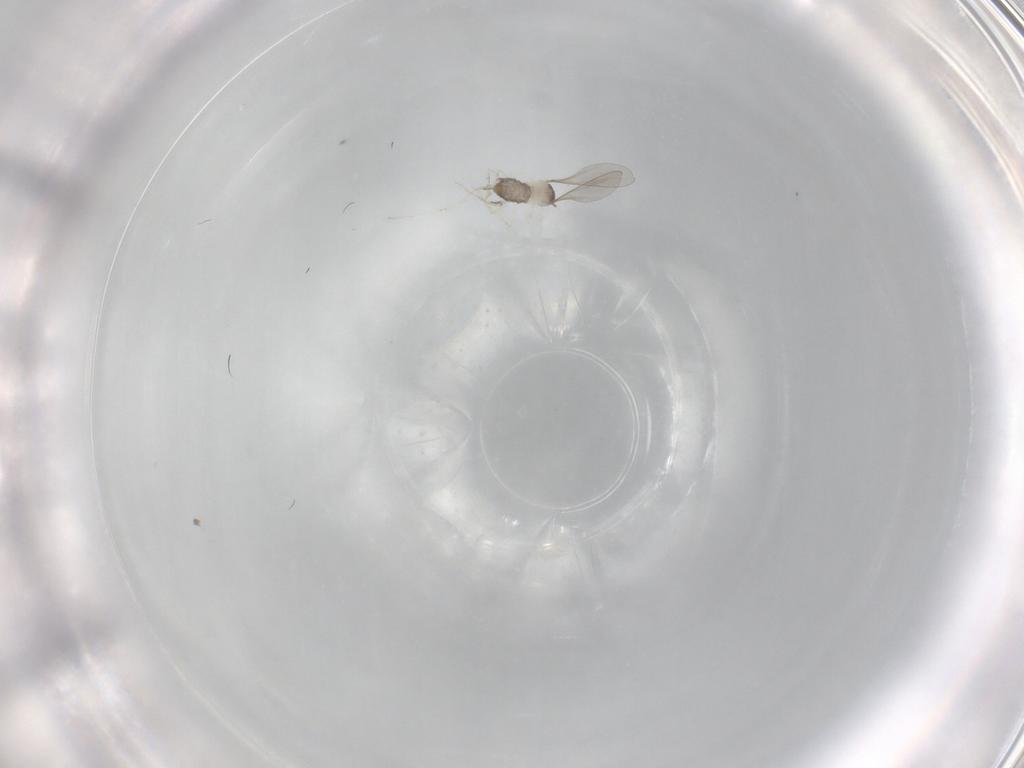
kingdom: Animalia
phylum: Arthropoda
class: Insecta
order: Diptera
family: Cecidomyiidae
